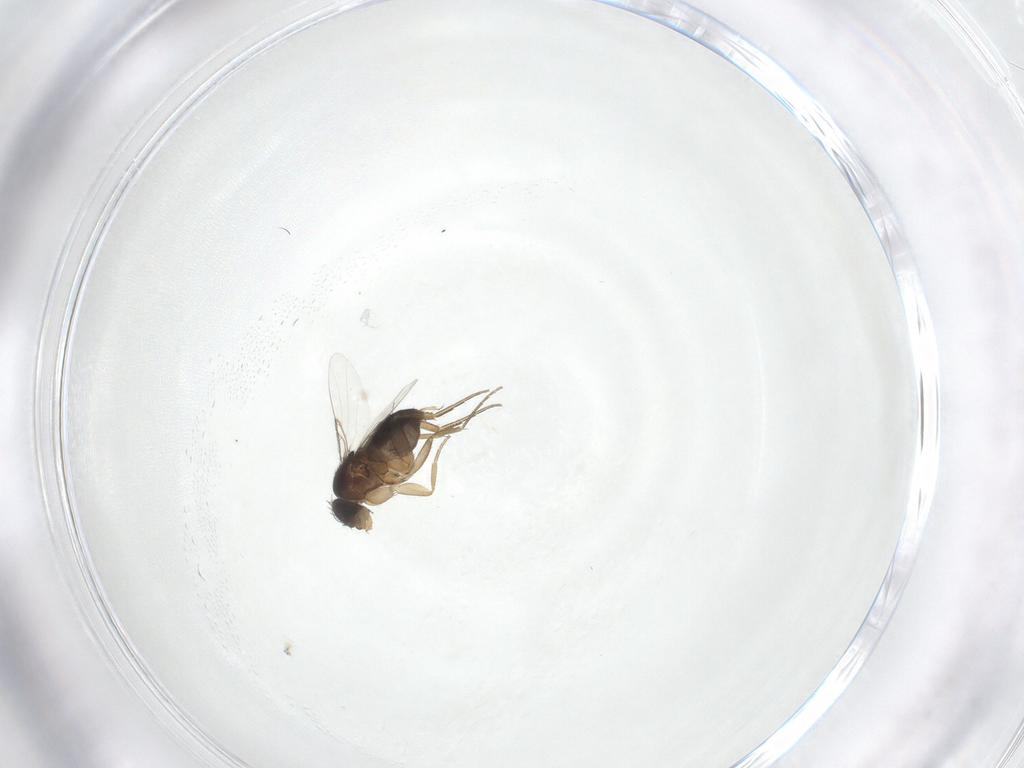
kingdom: Animalia
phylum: Arthropoda
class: Insecta
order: Diptera
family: Phoridae
